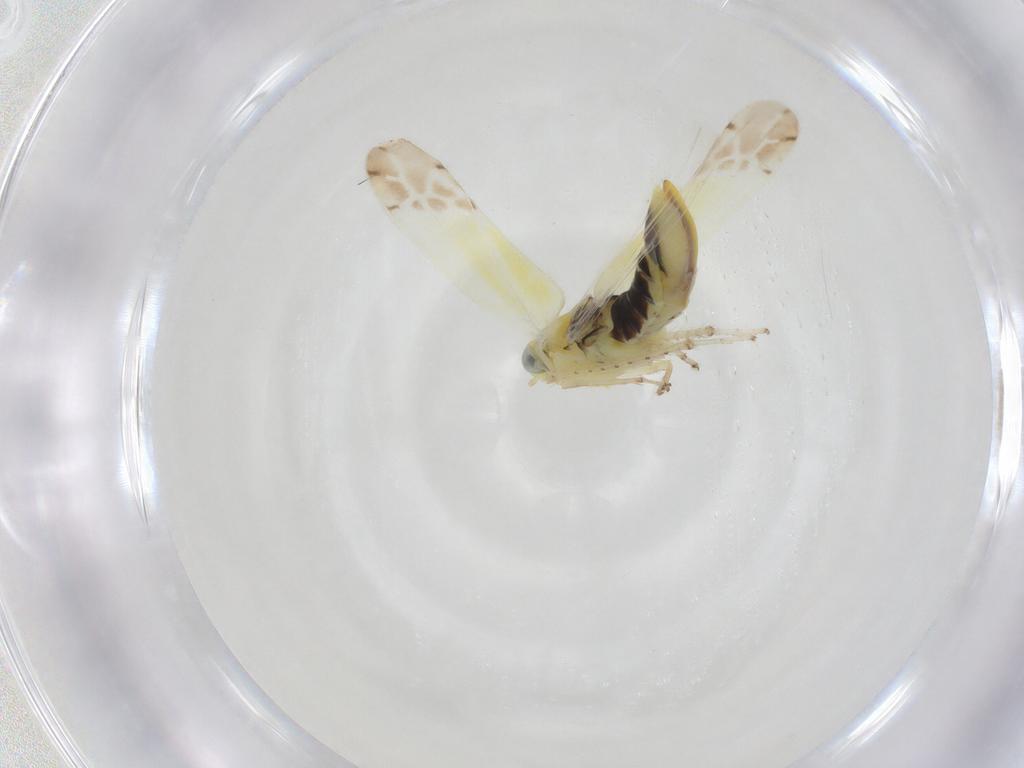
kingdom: Animalia
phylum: Arthropoda
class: Insecta
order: Hemiptera
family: Cicadellidae
